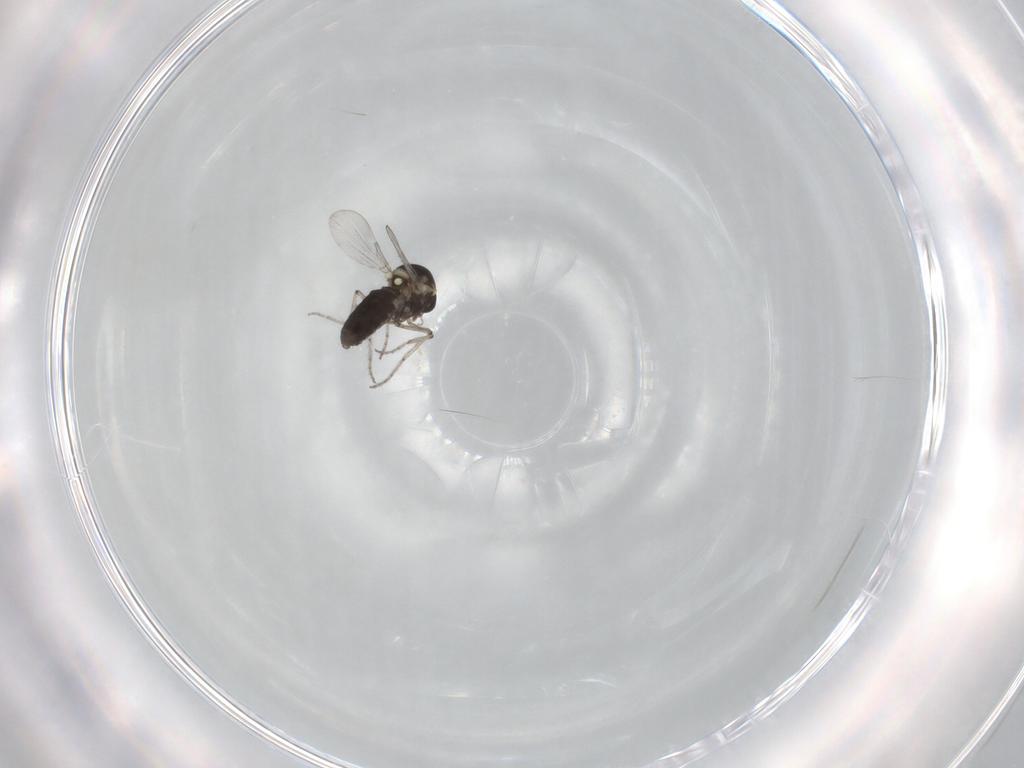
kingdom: Animalia
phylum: Arthropoda
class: Insecta
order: Diptera
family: Ceratopogonidae
